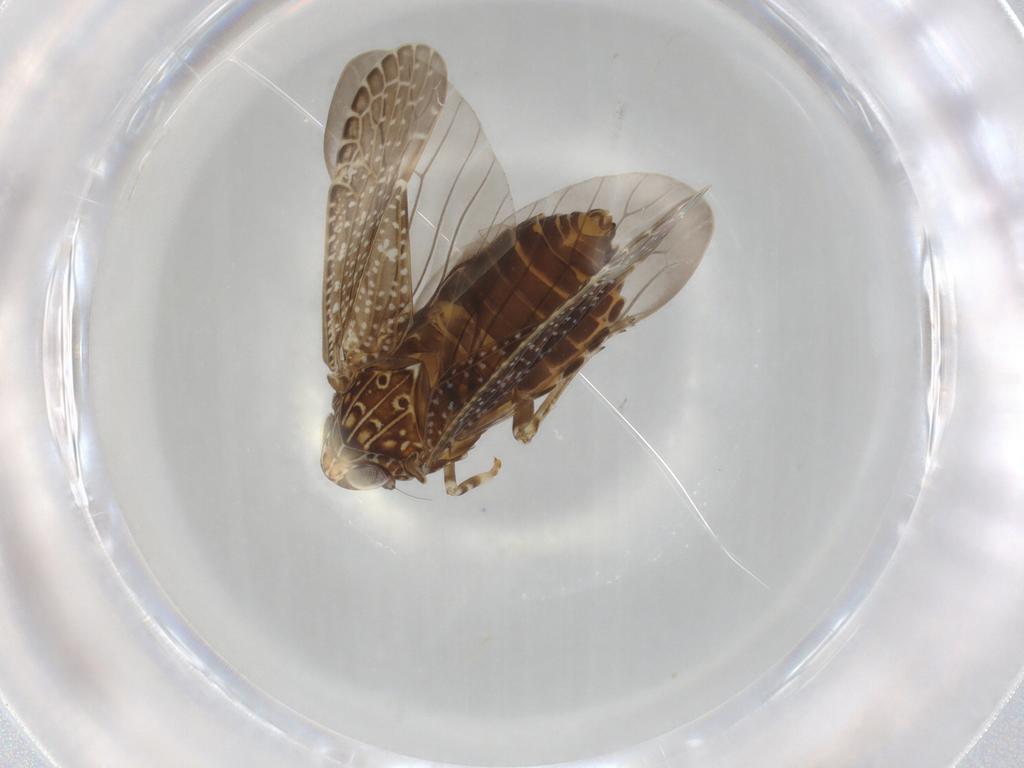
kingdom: Animalia
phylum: Arthropoda
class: Insecta
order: Hemiptera
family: Achilidae
